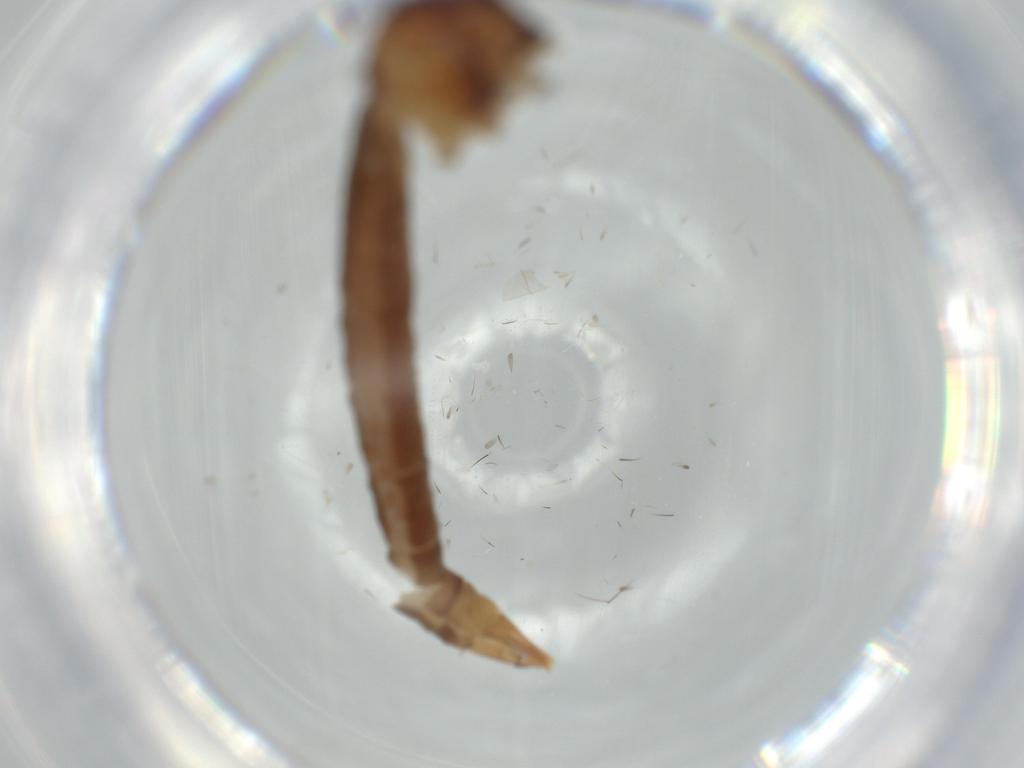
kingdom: Animalia
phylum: Arthropoda
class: Insecta
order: Diptera
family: Limoniidae
